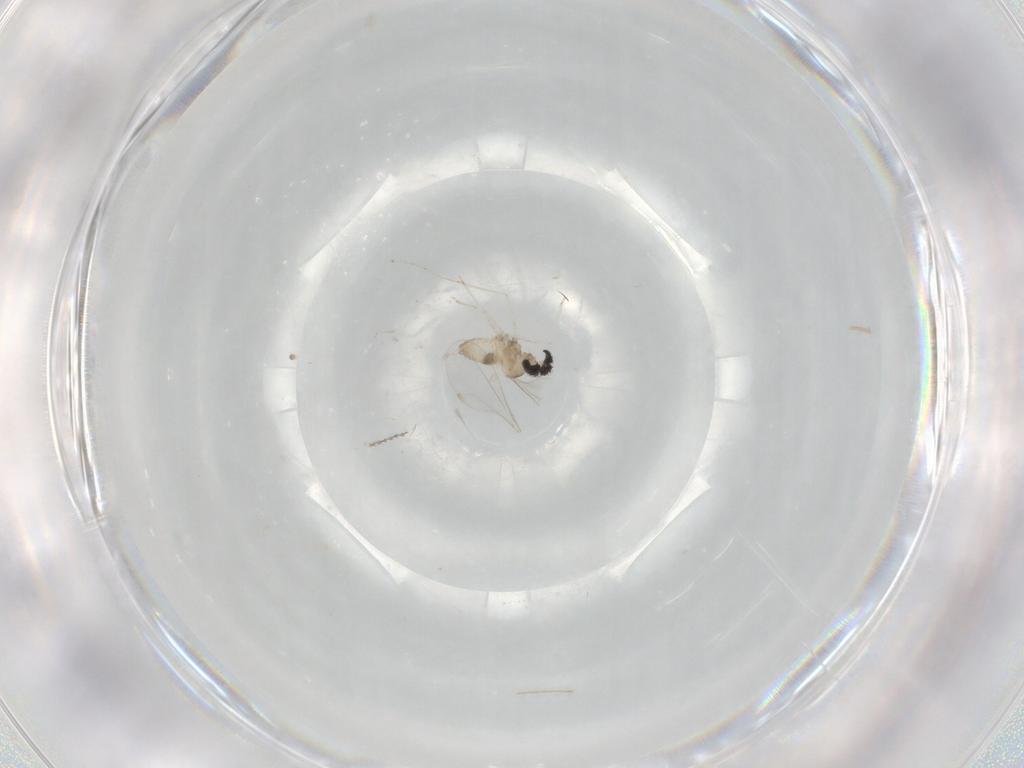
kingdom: Animalia
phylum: Arthropoda
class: Insecta
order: Diptera
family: Cecidomyiidae
